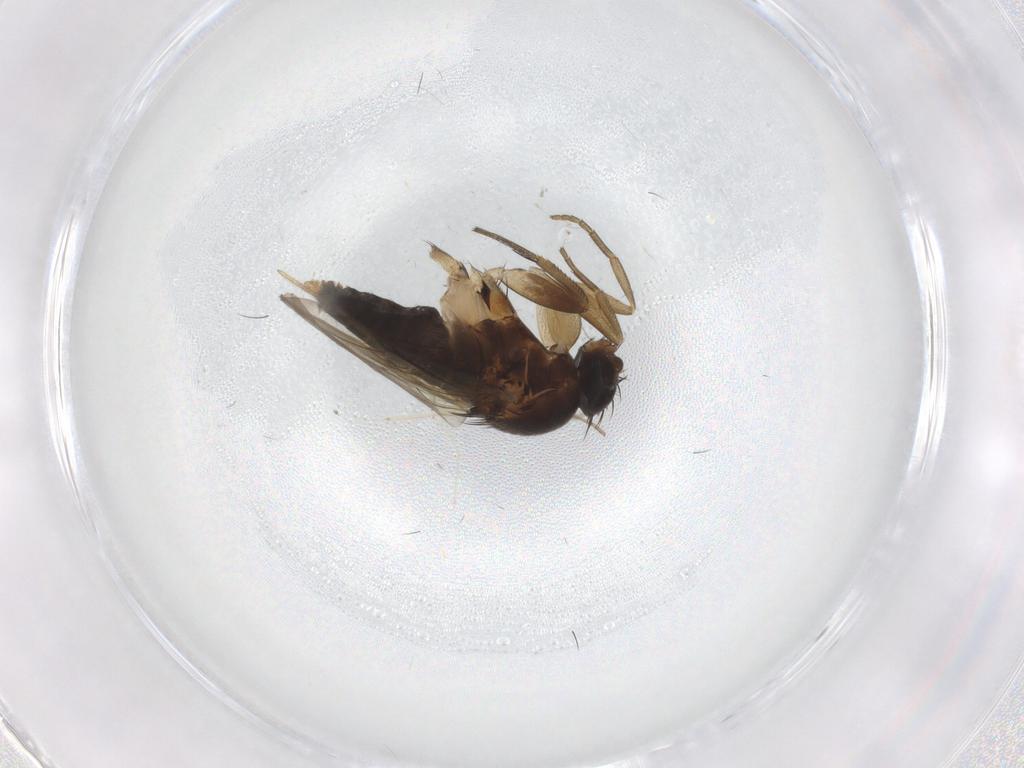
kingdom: Animalia
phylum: Arthropoda
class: Insecta
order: Diptera
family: Phoridae
